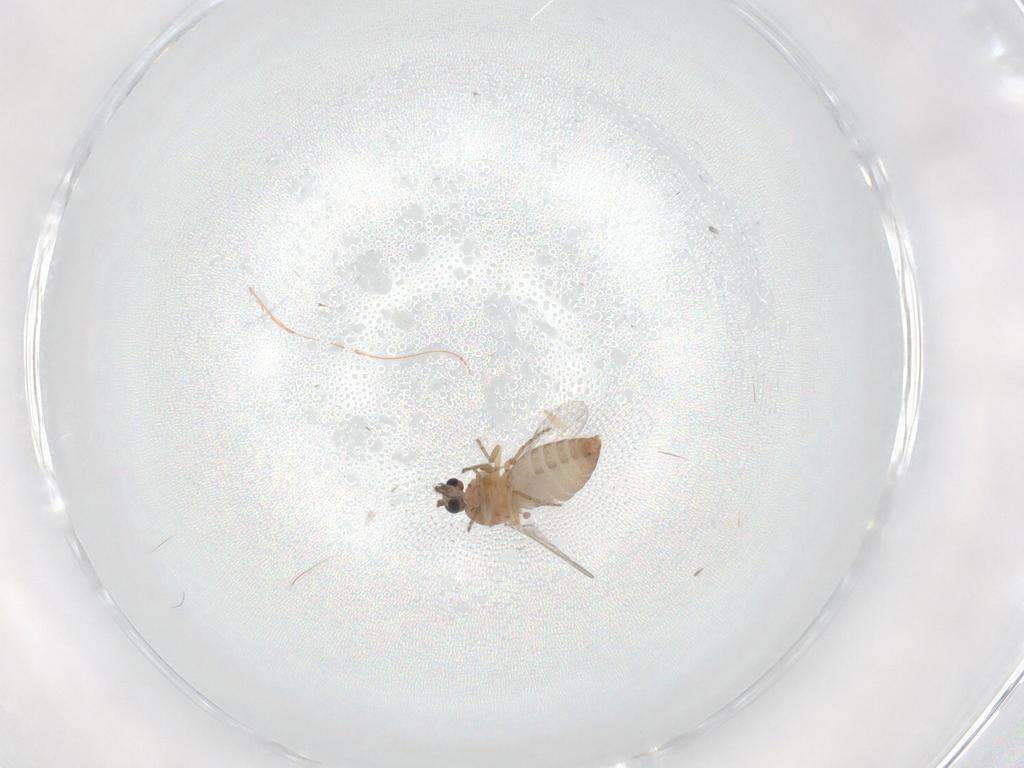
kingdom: Animalia
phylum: Arthropoda
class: Insecta
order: Diptera
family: Ceratopogonidae
